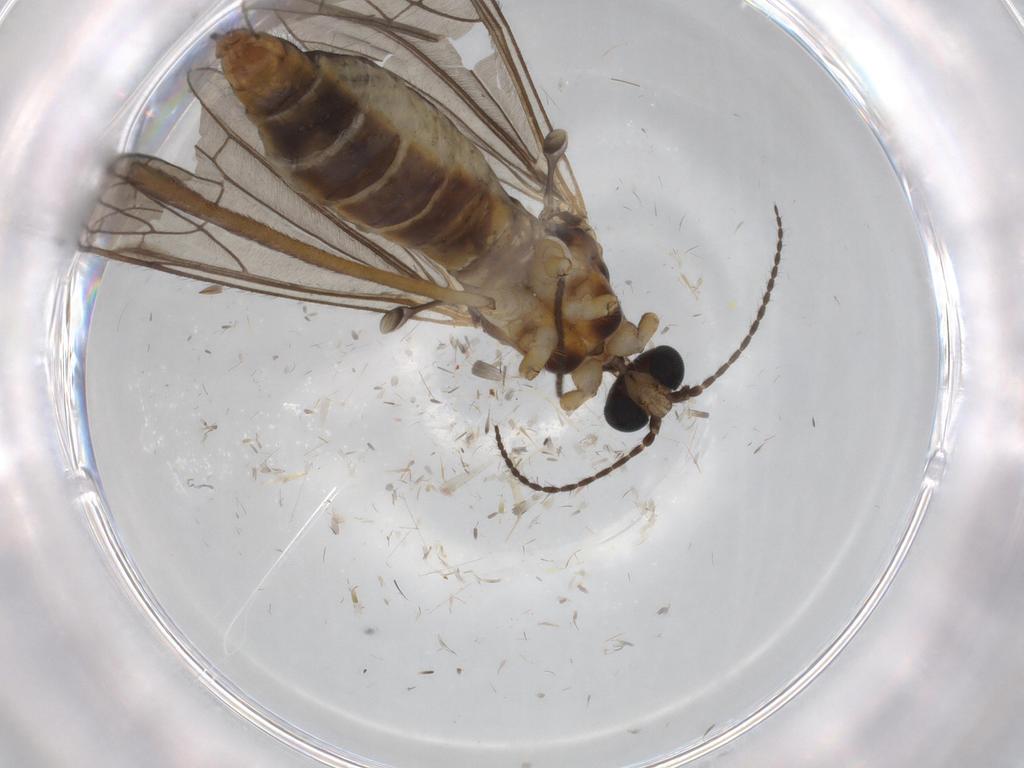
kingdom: Animalia
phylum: Arthropoda
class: Insecta
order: Diptera
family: Limoniidae
